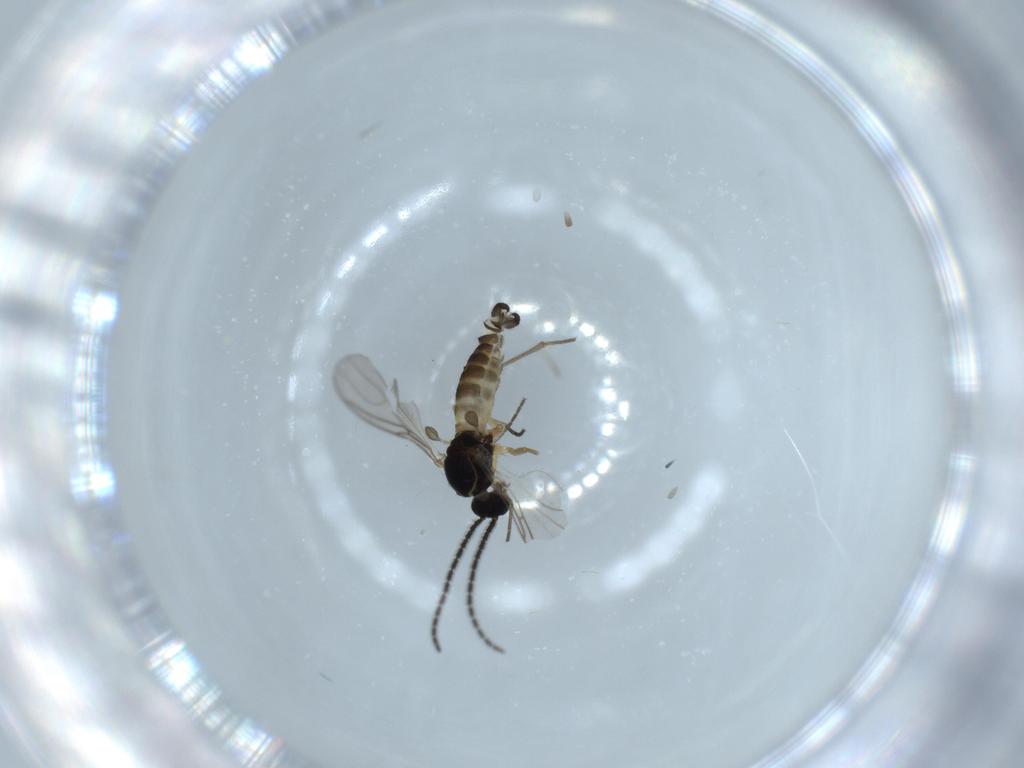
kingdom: Animalia
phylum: Arthropoda
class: Insecta
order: Diptera
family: Sciaridae
